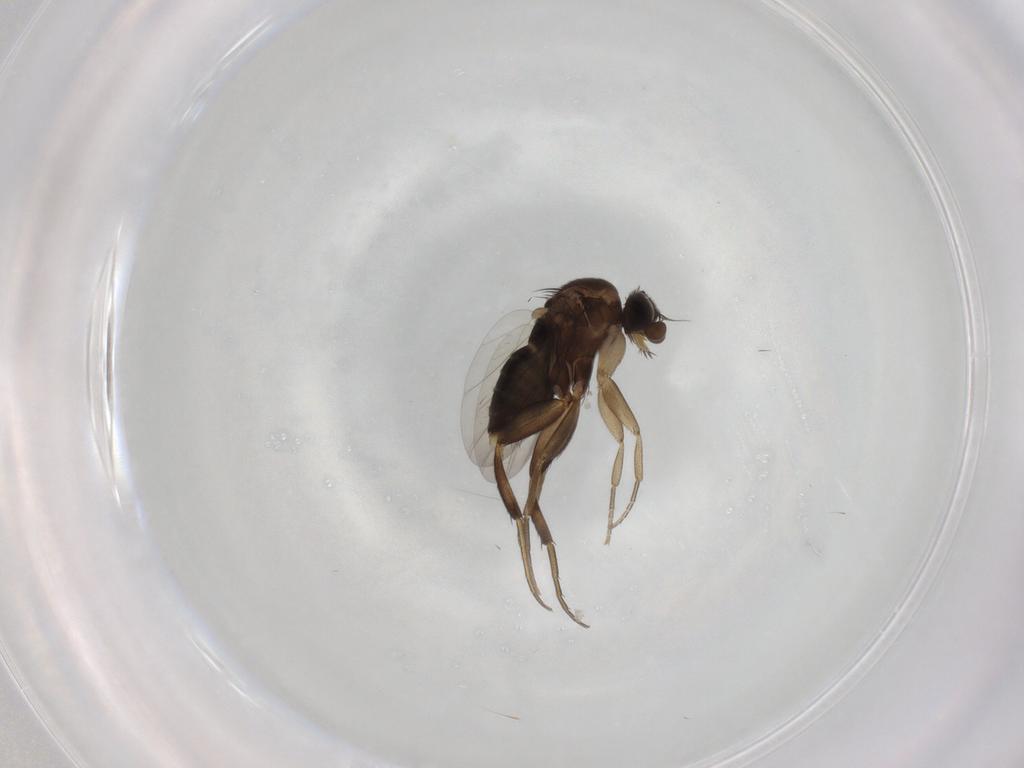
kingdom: Animalia
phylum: Arthropoda
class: Insecta
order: Diptera
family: Phoridae
